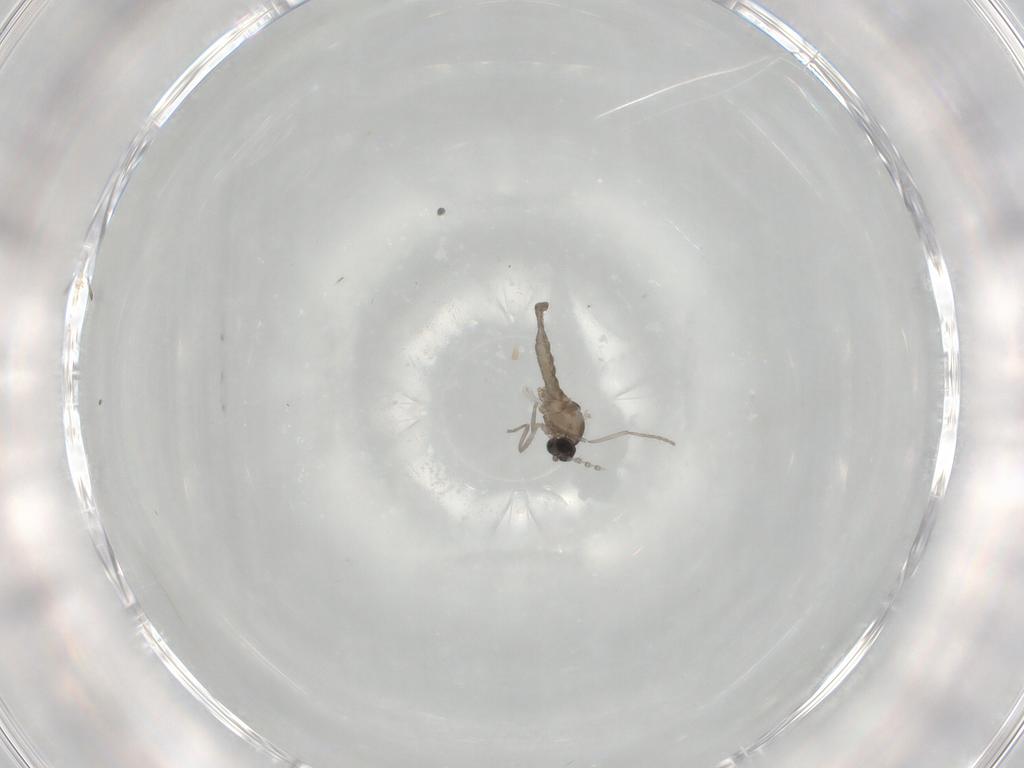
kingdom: Animalia
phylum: Arthropoda
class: Insecta
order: Diptera
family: Cecidomyiidae
